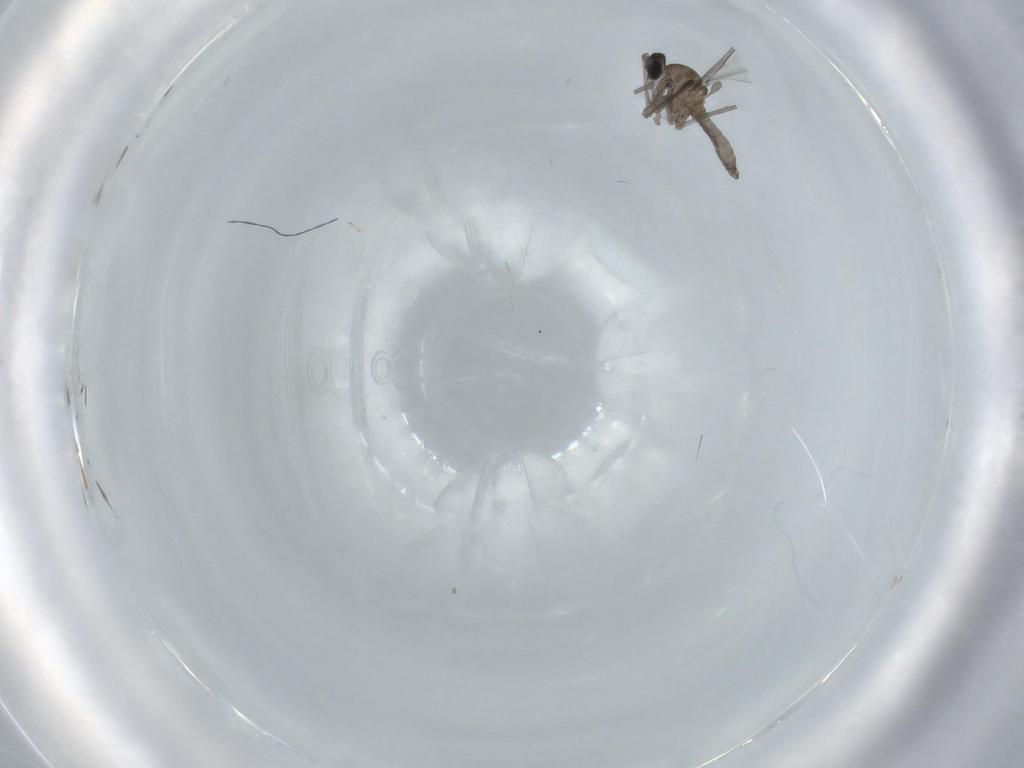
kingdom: Animalia
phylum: Arthropoda
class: Insecta
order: Diptera
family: Cecidomyiidae
